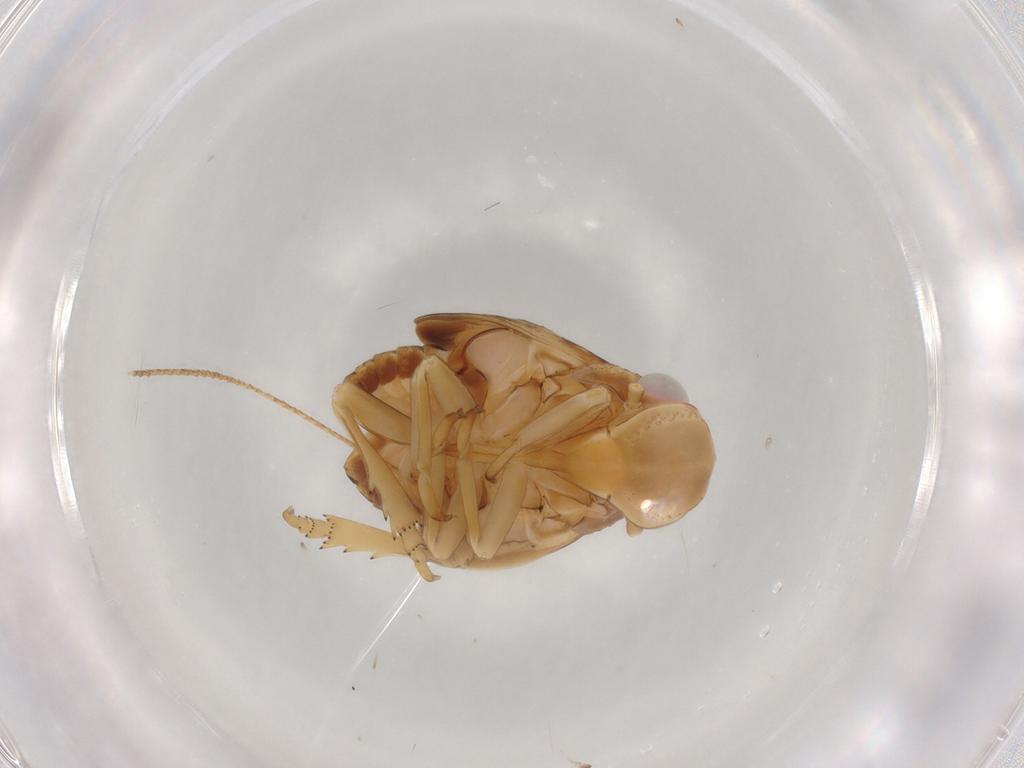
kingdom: Animalia
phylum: Arthropoda
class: Insecta
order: Hemiptera
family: Flatidae
